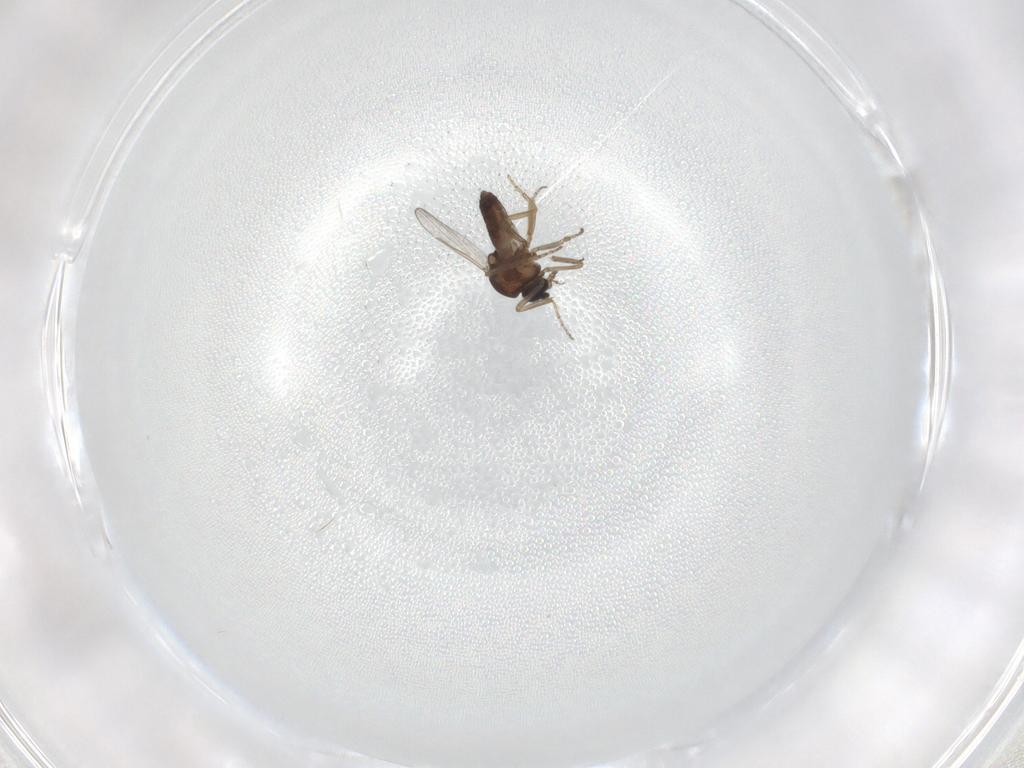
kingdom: Animalia
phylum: Arthropoda
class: Insecta
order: Diptera
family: Ceratopogonidae
